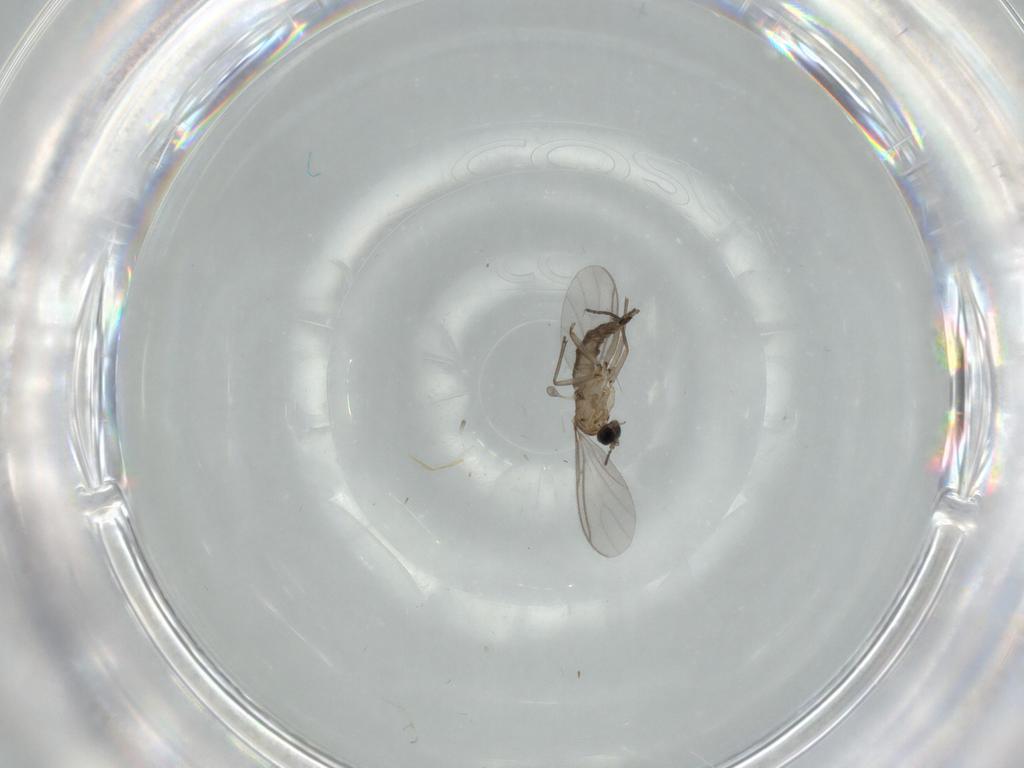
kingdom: Animalia
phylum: Arthropoda
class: Insecta
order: Diptera
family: Sciaridae
